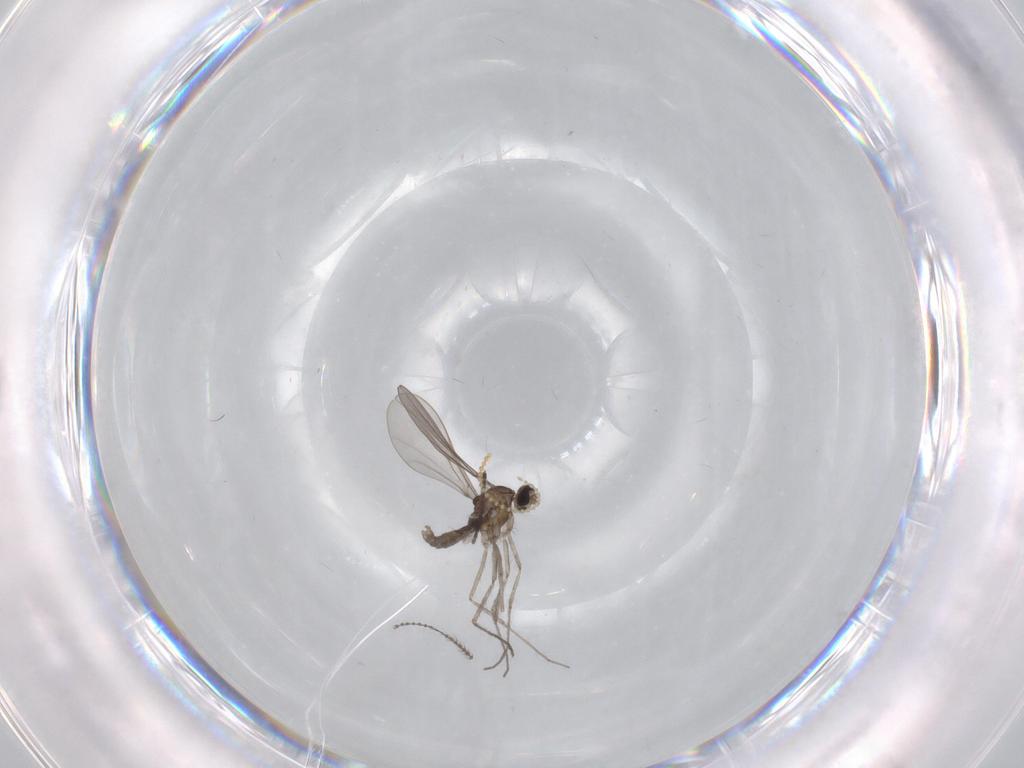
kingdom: Animalia
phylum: Arthropoda
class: Insecta
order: Diptera
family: Sciaridae
